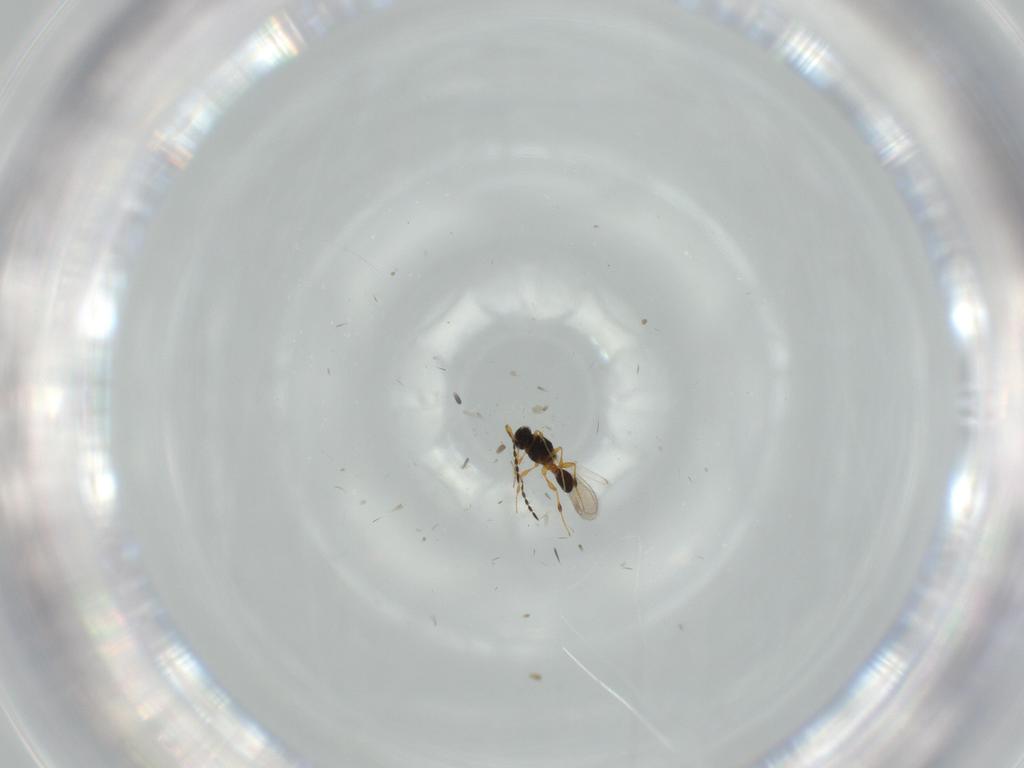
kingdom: Animalia
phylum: Arthropoda
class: Insecta
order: Hymenoptera
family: Platygastridae
